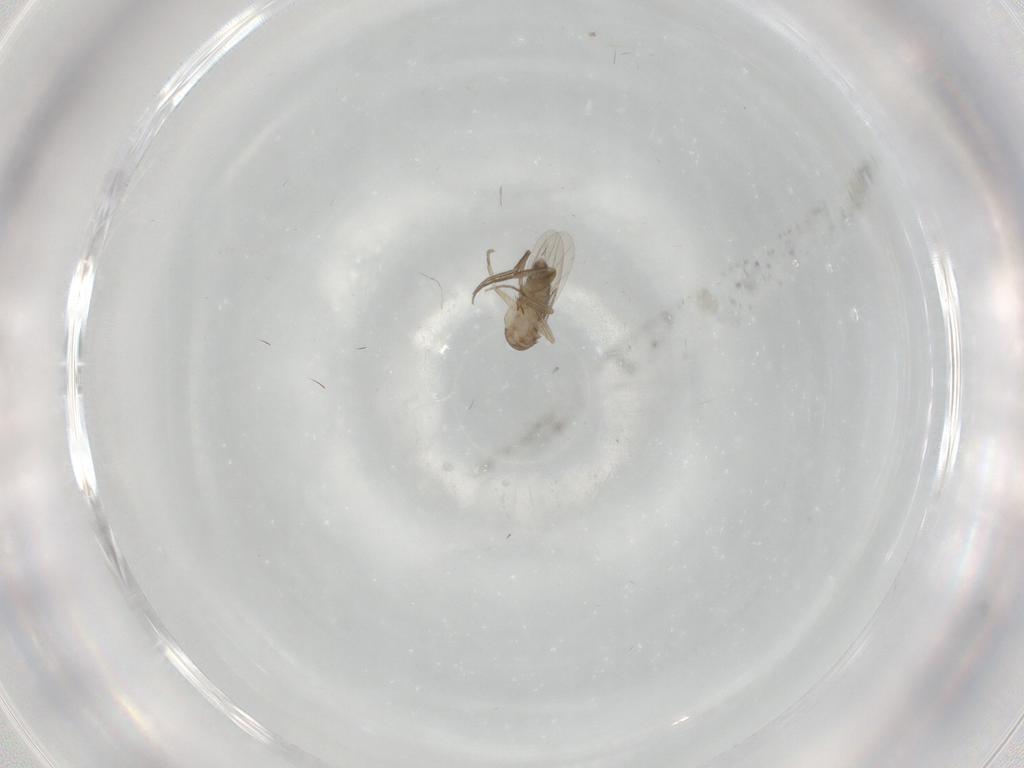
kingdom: Animalia
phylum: Arthropoda
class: Insecta
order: Diptera
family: Phoridae
